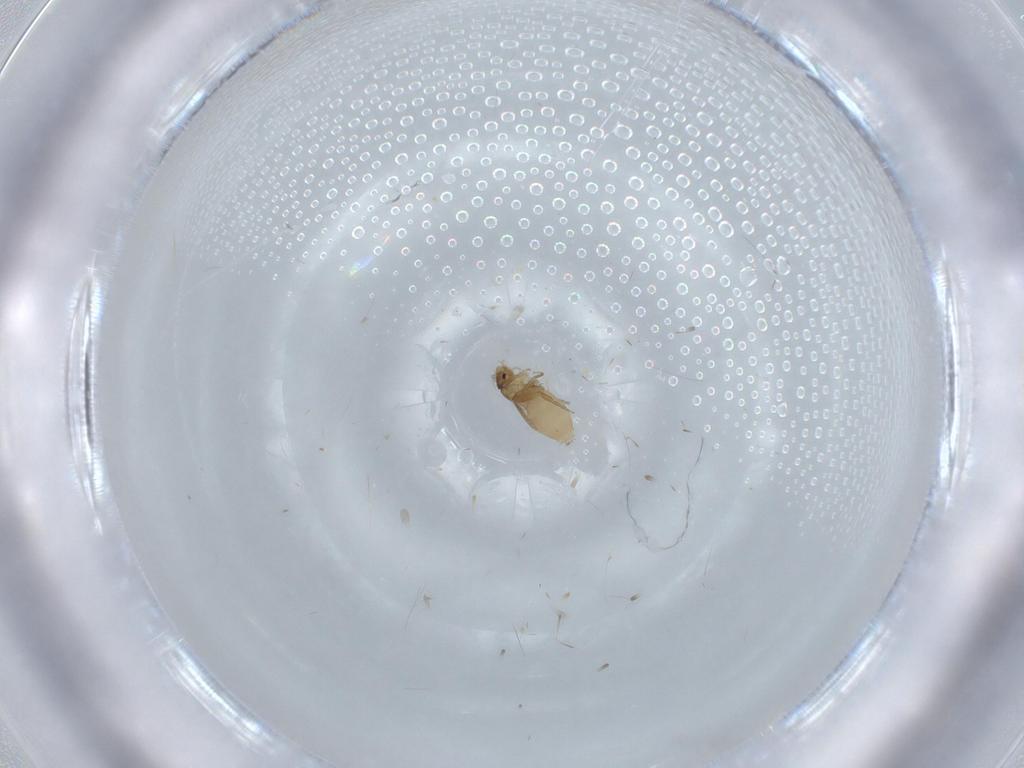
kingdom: Animalia
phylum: Arthropoda
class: Insecta
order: Diptera
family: Phoridae
